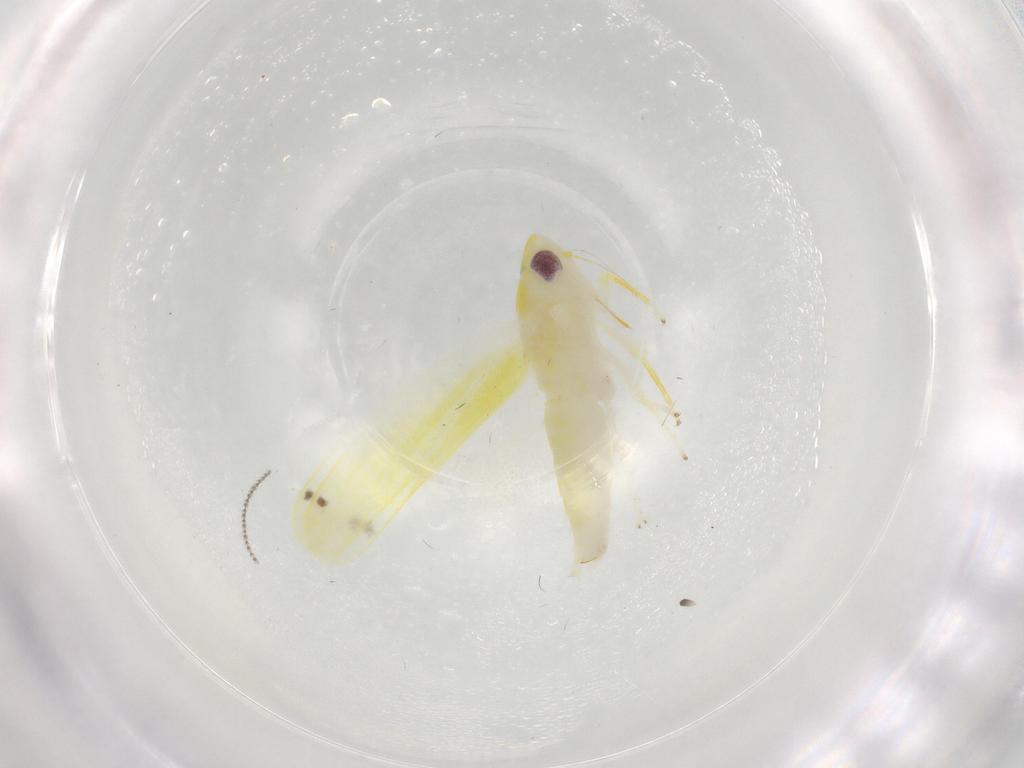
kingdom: Animalia
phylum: Arthropoda
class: Insecta
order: Hemiptera
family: Cicadellidae
